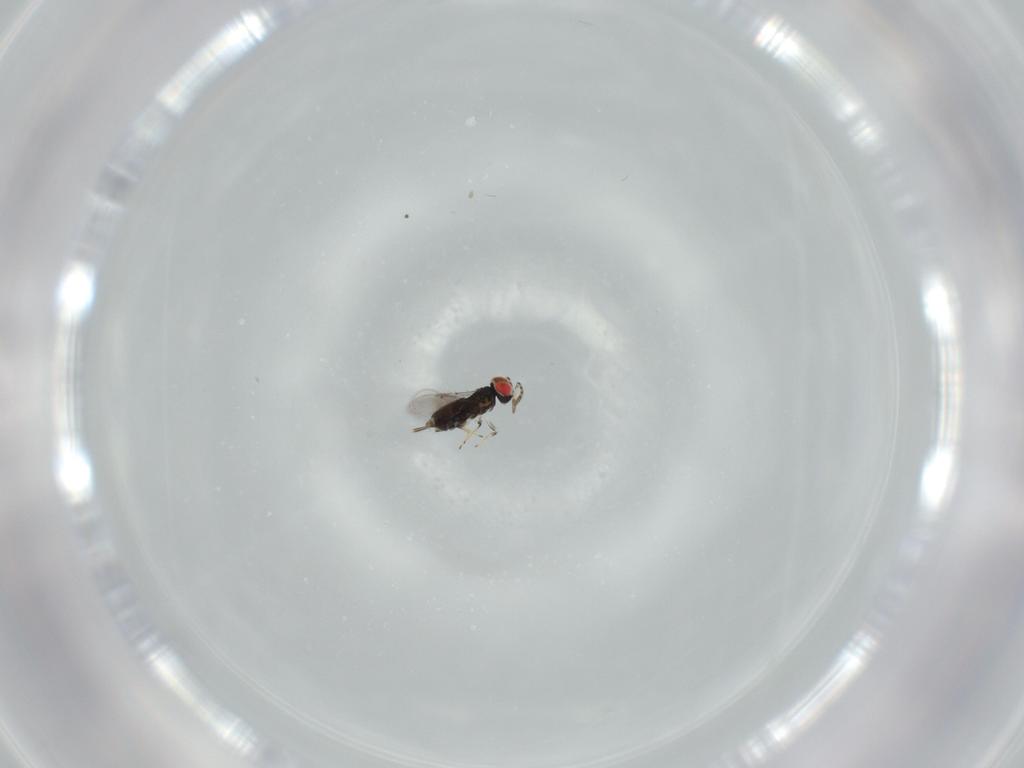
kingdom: Animalia
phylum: Arthropoda
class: Insecta
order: Hymenoptera
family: Azotidae
